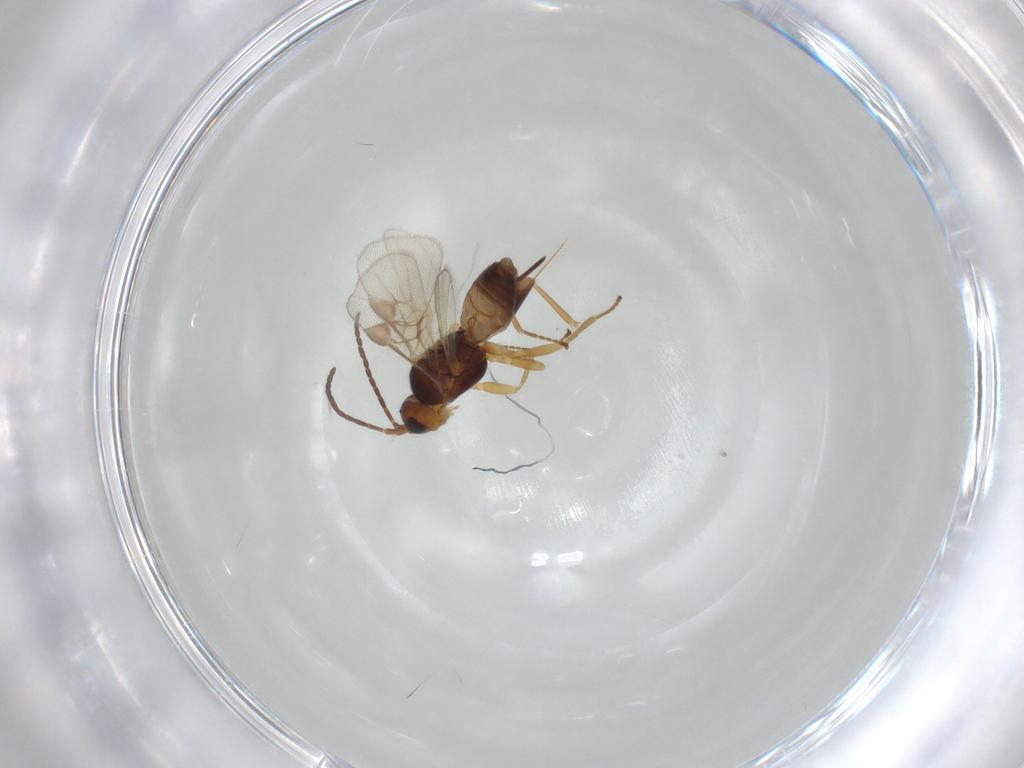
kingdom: Animalia
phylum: Arthropoda
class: Insecta
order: Hymenoptera
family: Braconidae
